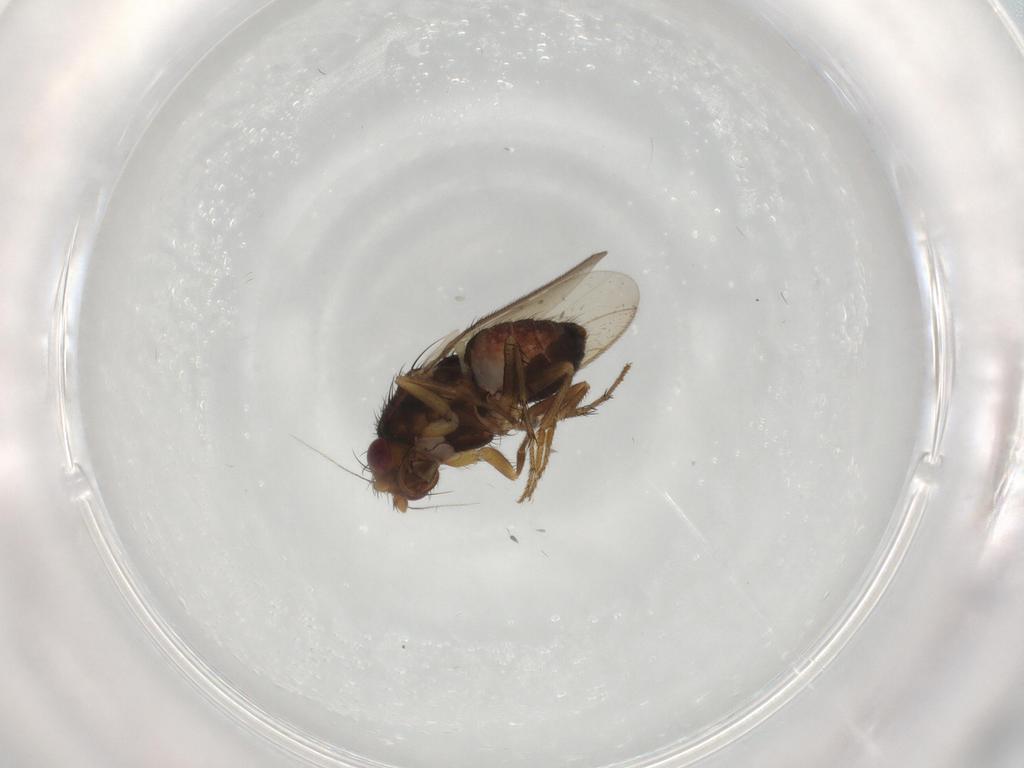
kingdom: Animalia
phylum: Arthropoda
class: Insecta
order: Diptera
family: Sphaeroceridae
